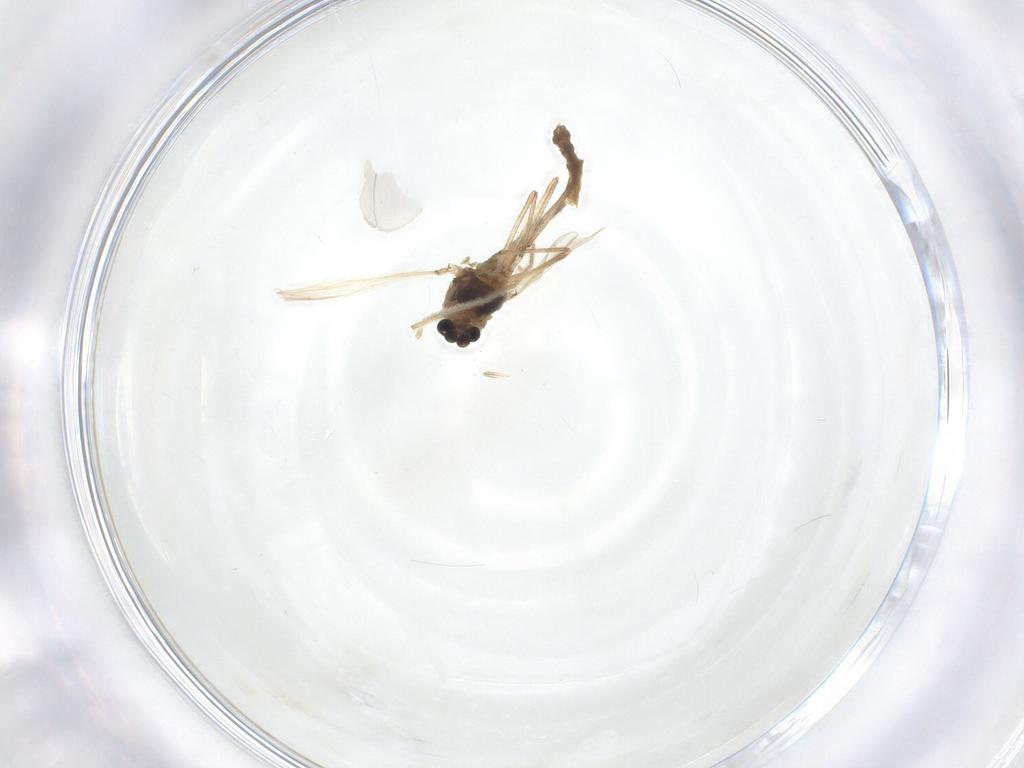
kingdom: Animalia
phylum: Arthropoda
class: Insecta
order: Diptera
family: Chironomidae
